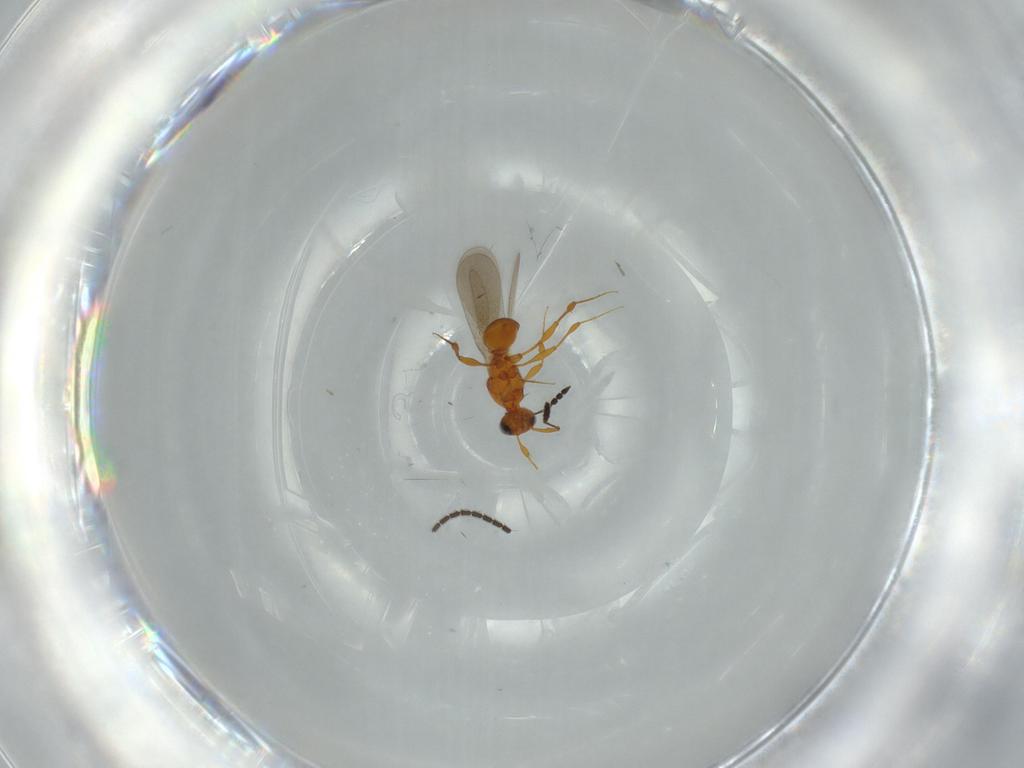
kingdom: Animalia
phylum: Arthropoda
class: Insecta
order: Hymenoptera
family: Platygastridae
